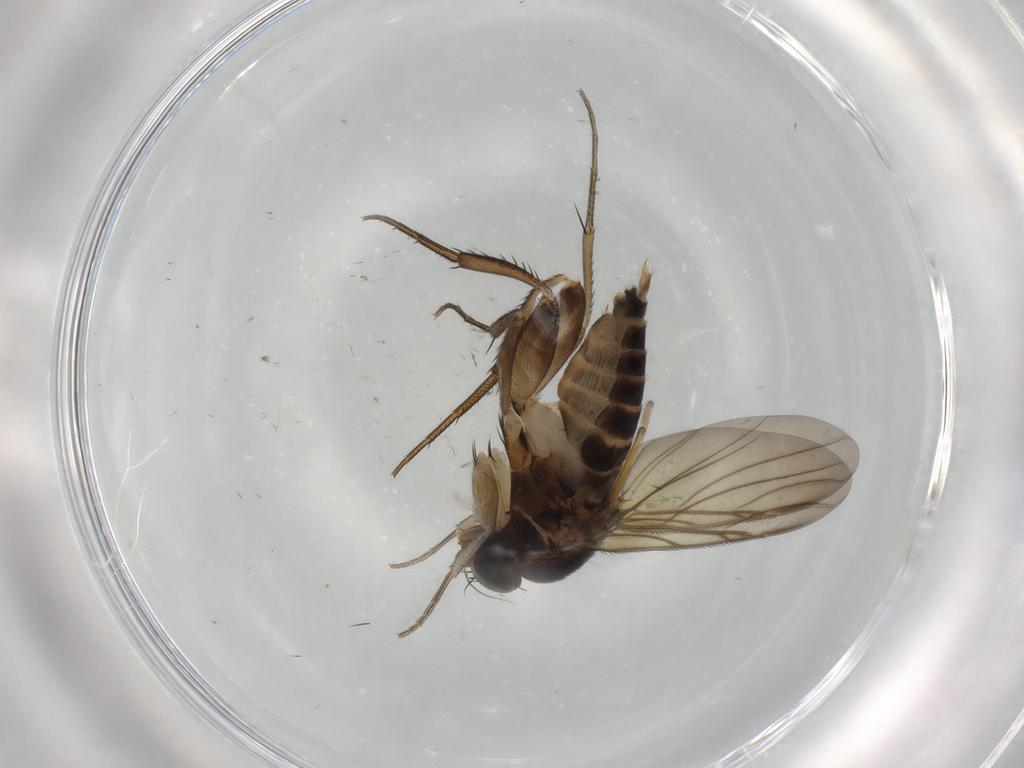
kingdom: Animalia
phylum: Arthropoda
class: Insecta
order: Diptera
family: Phoridae
